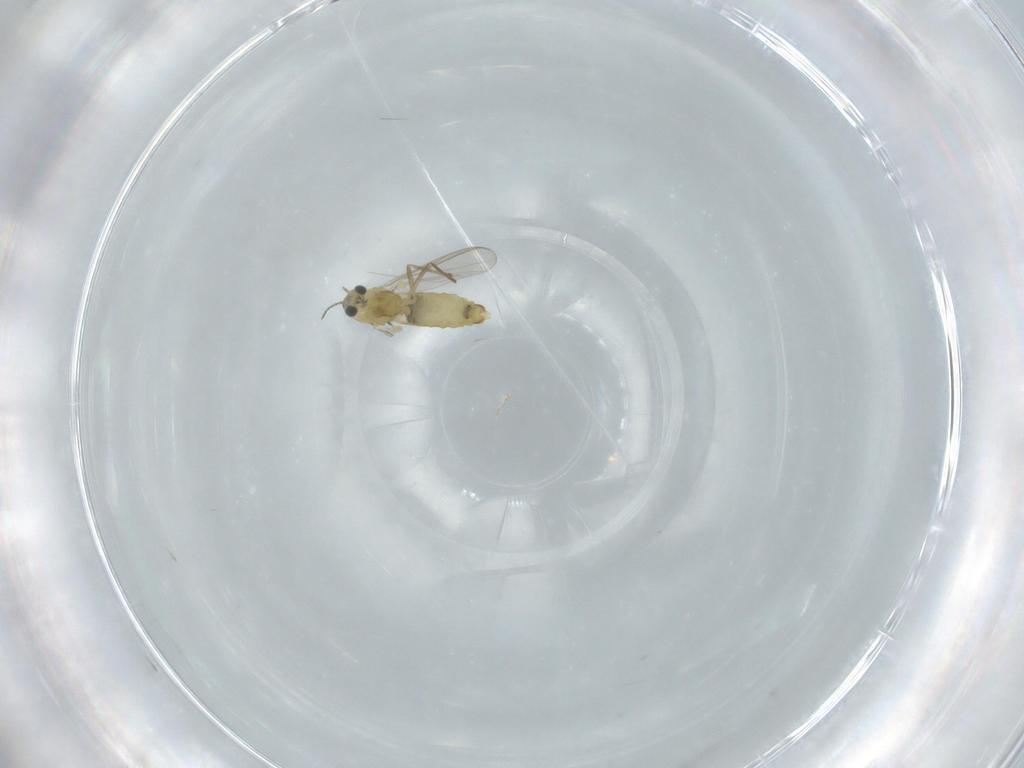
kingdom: Animalia
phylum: Arthropoda
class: Insecta
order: Diptera
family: Chironomidae
